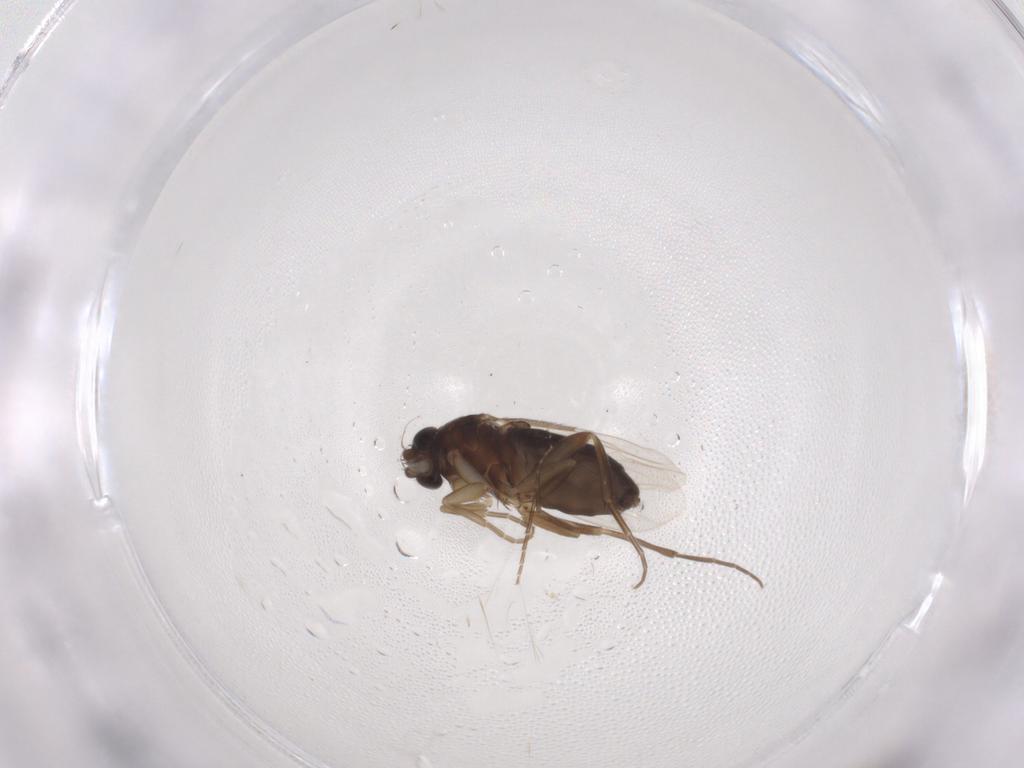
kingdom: Animalia
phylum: Arthropoda
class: Insecta
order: Diptera
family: Phoridae
